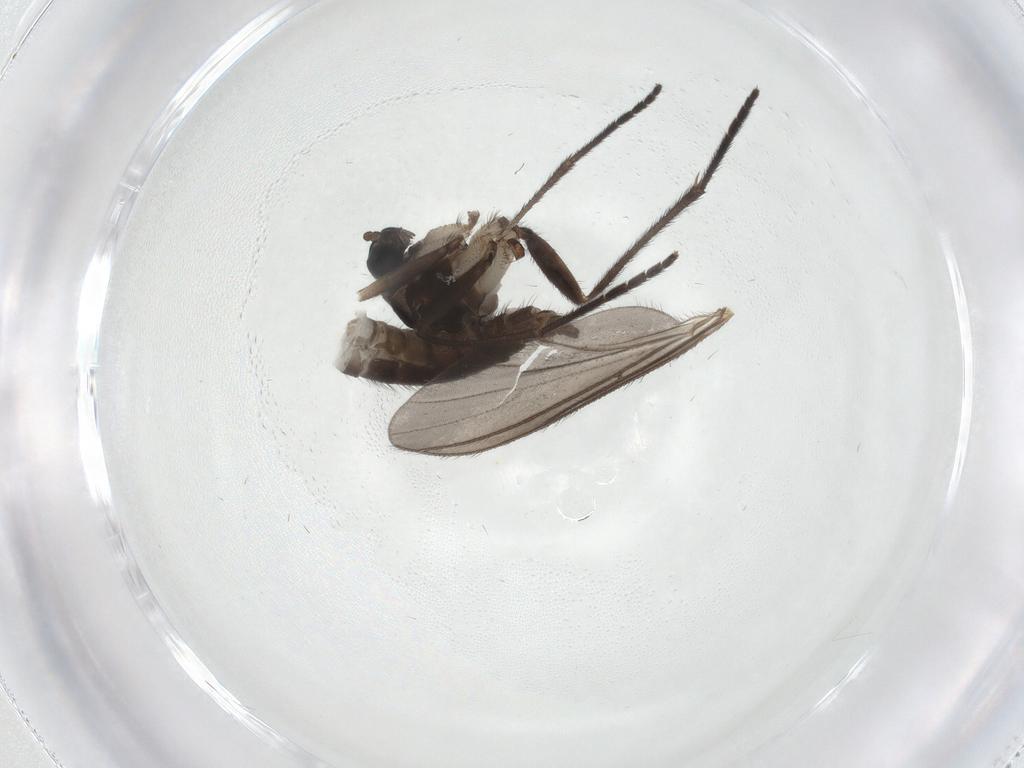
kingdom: Animalia
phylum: Arthropoda
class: Insecta
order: Diptera
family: Sciaridae
